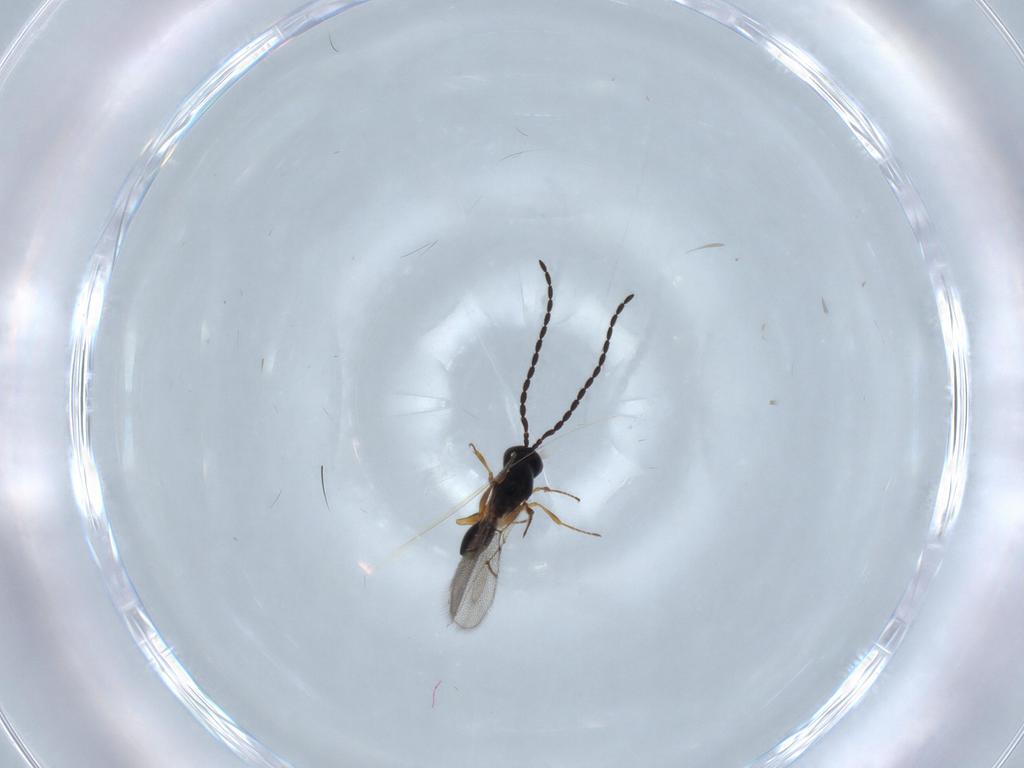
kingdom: Animalia
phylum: Arthropoda
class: Insecta
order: Hymenoptera
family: Figitidae
